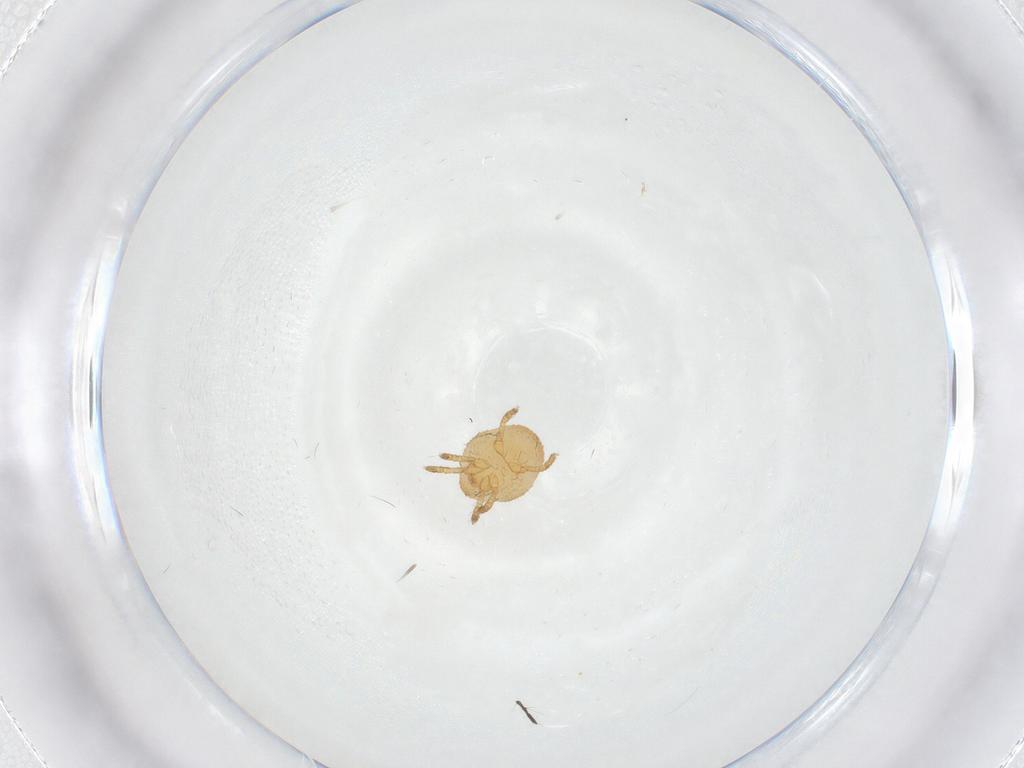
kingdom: Animalia
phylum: Arthropoda
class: Arachnida
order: Trombidiformes
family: Calyptostomatidae
